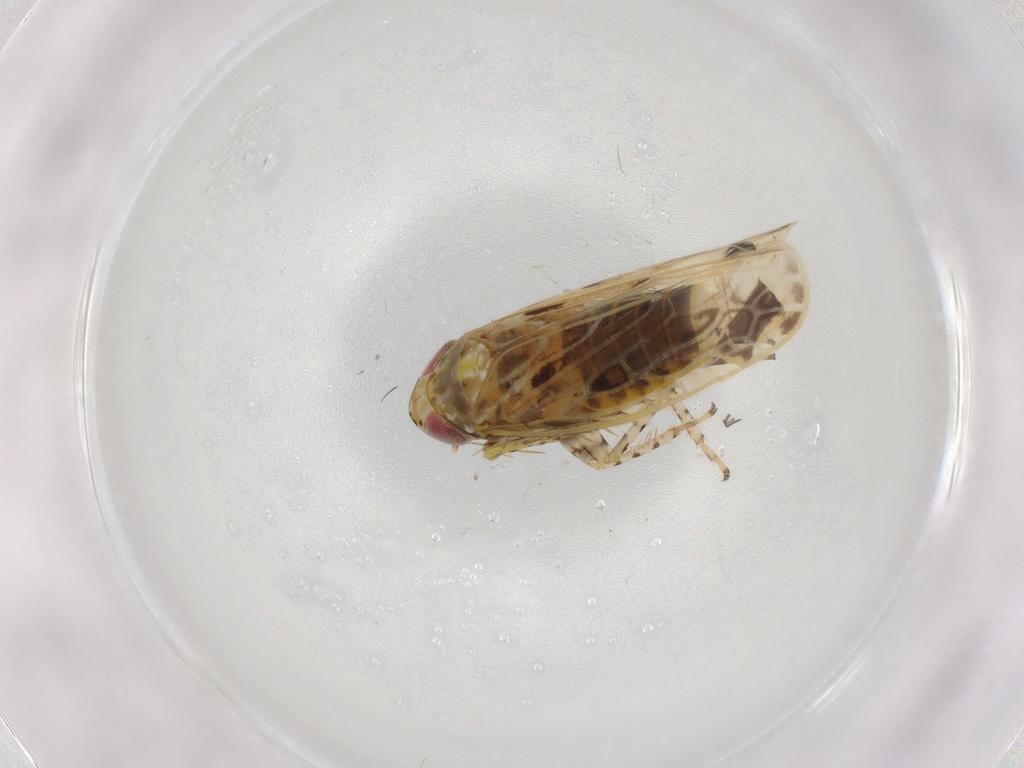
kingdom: Animalia
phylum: Arthropoda
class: Insecta
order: Hemiptera
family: Cicadellidae
